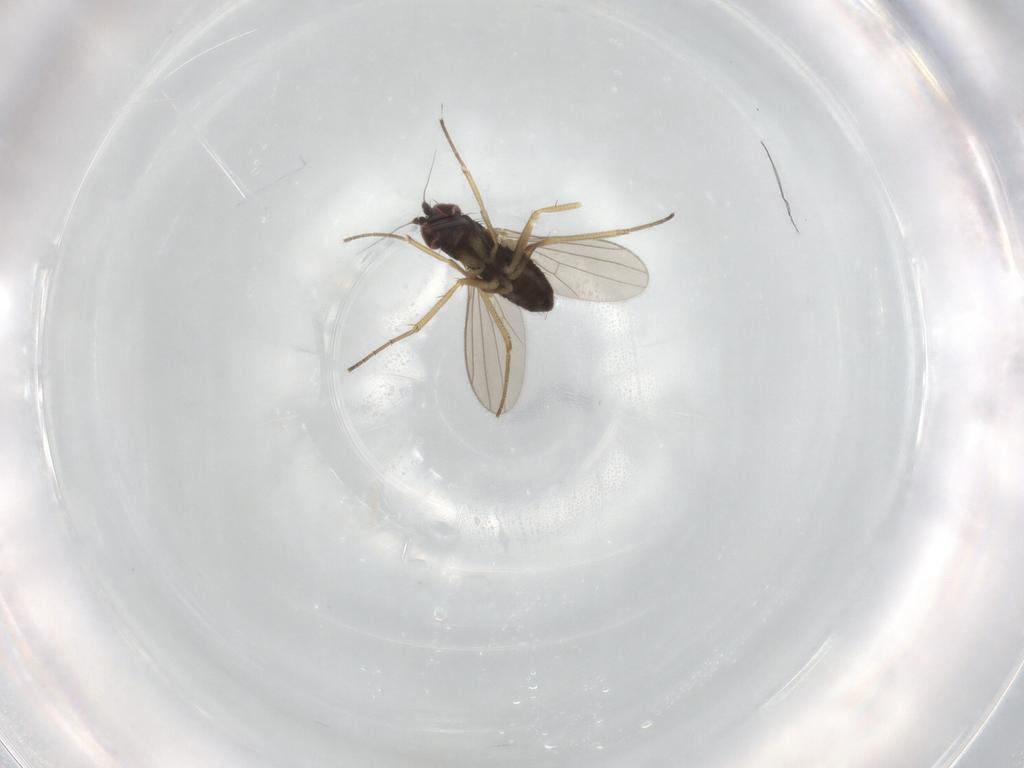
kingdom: Animalia
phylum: Arthropoda
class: Insecta
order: Diptera
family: Dolichopodidae
